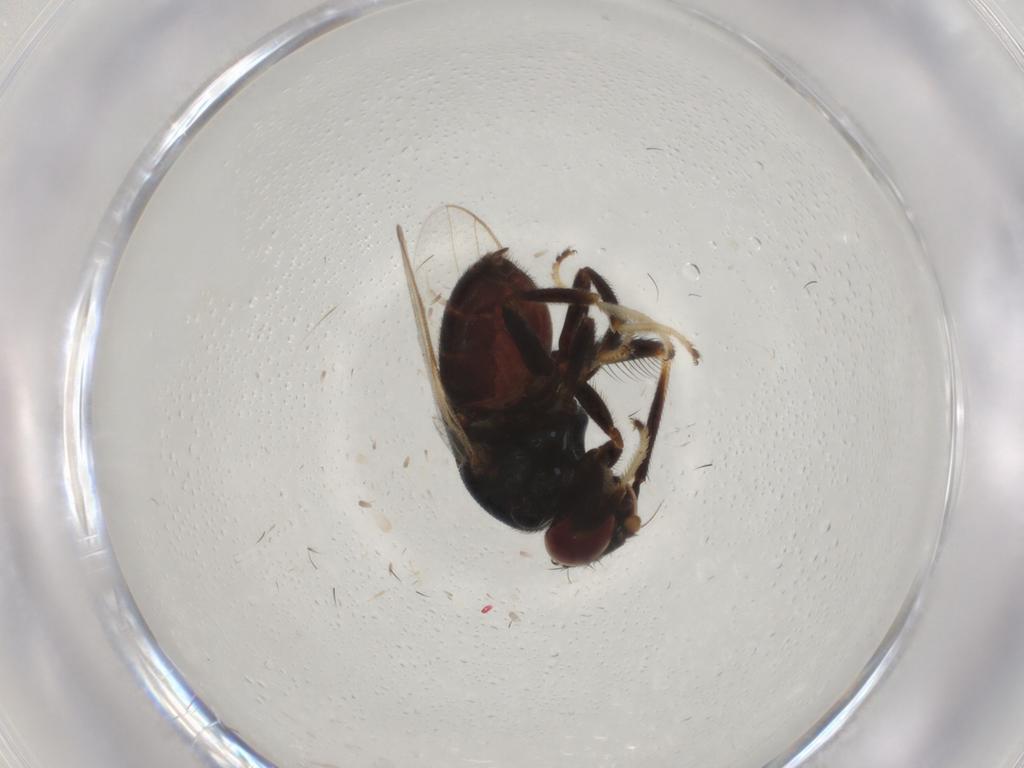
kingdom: Animalia
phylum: Arthropoda
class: Insecta
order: Diptera
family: Chloropidae
